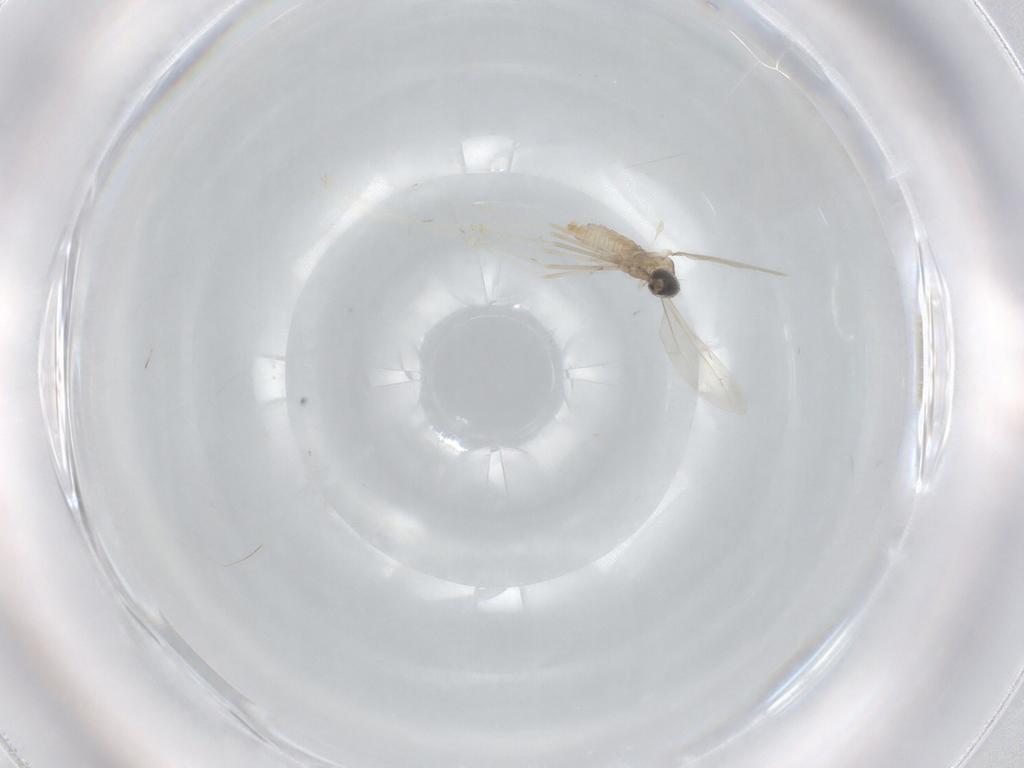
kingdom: Animalia
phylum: Arthropoda
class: Insecta
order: Diptera
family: Cecidomyiidae
